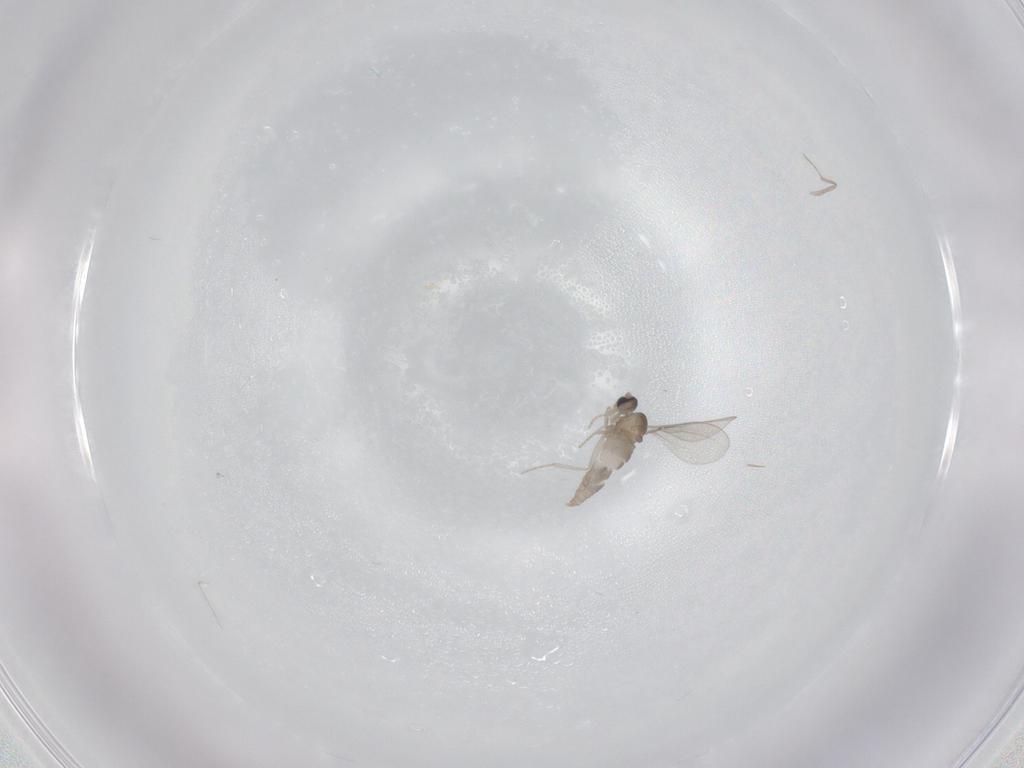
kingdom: Animalia
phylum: Arthropoda
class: Insecta
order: Diptera
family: Cecidomyiidae
